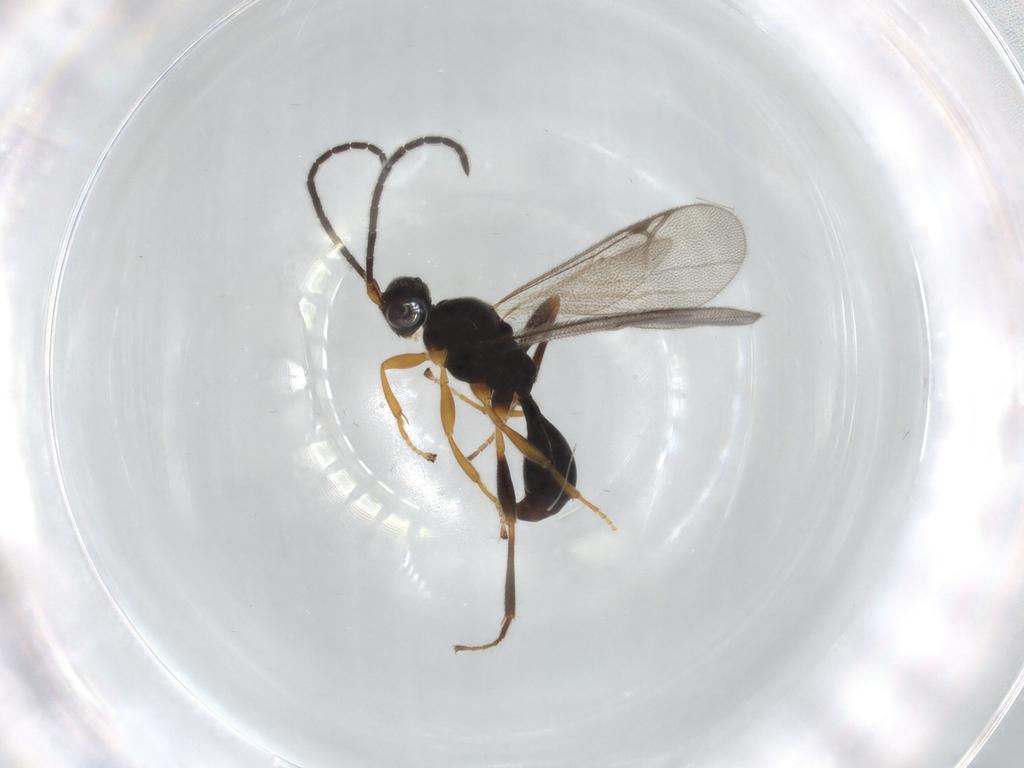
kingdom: Animalia
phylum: Arthropoda
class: Insecta
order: Hymenoptera
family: Proctotrupidae
